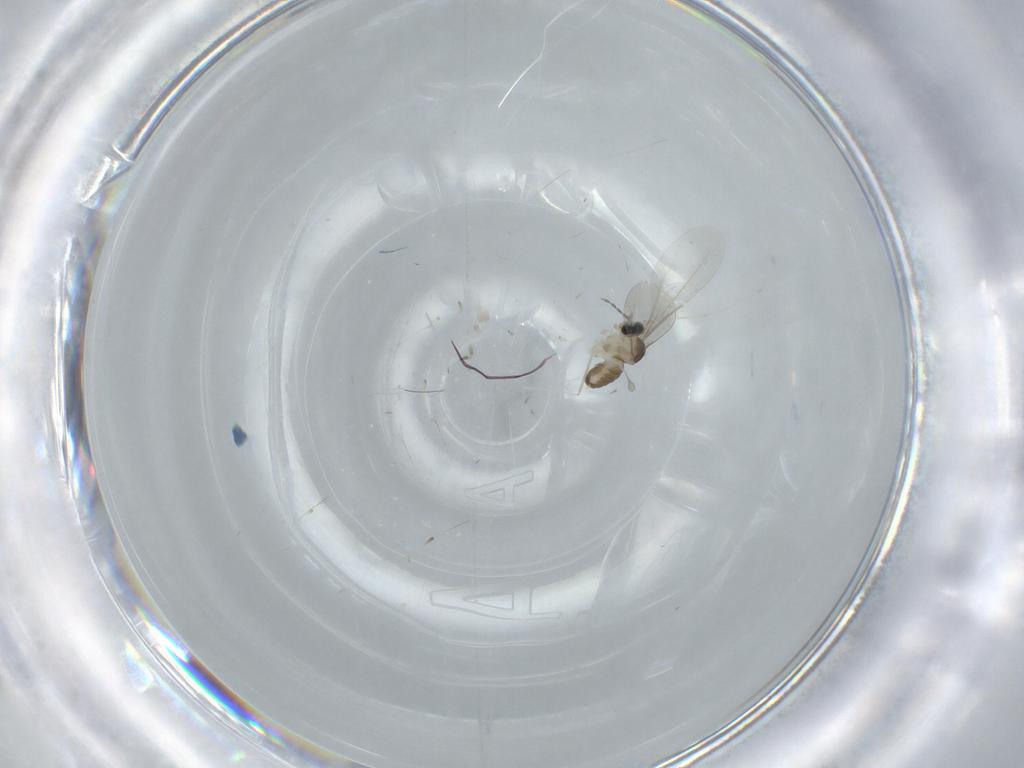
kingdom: Animalia
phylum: Arthropoda
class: Insecta
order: Diptera
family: Cecidomyiidae
